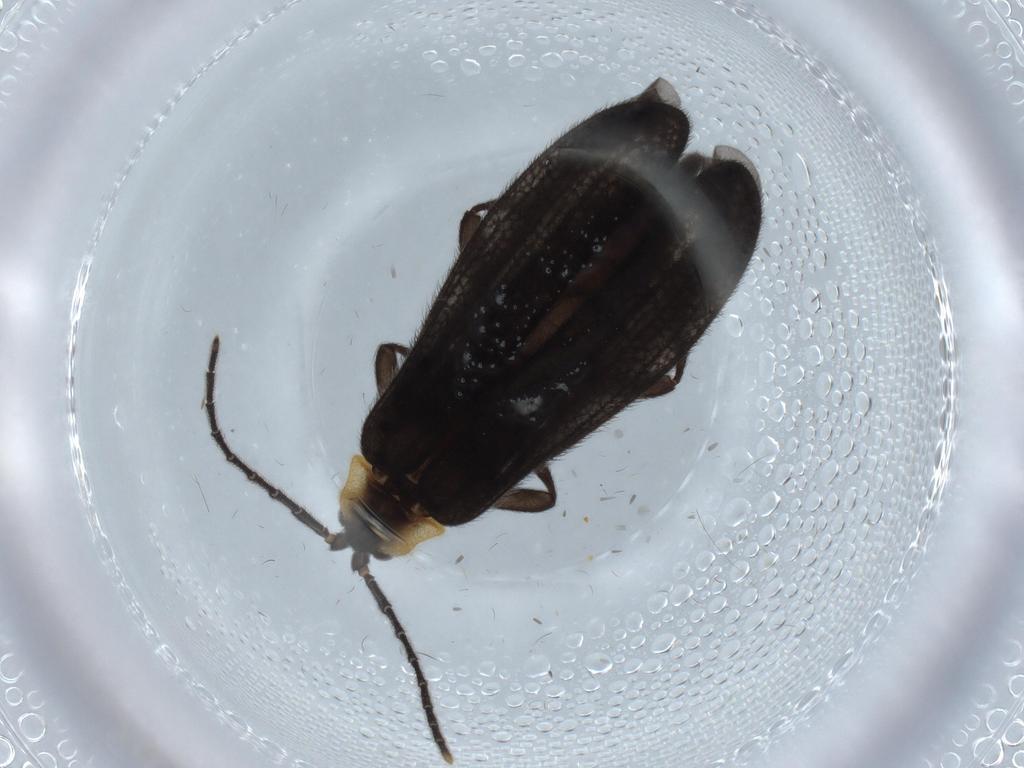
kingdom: Animalia
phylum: Arthropoda
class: Insecta
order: Coleoptera
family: Lycidae
